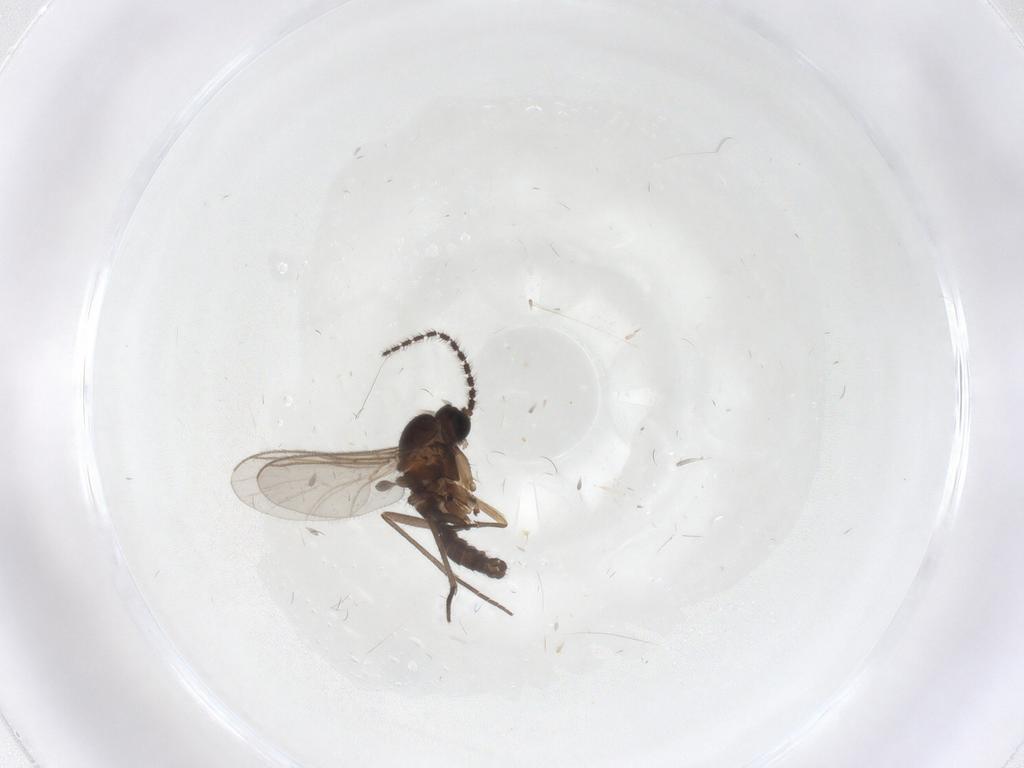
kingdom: Animalia
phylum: Arthropoda
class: Insecta
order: Diptera
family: Sciaridae
